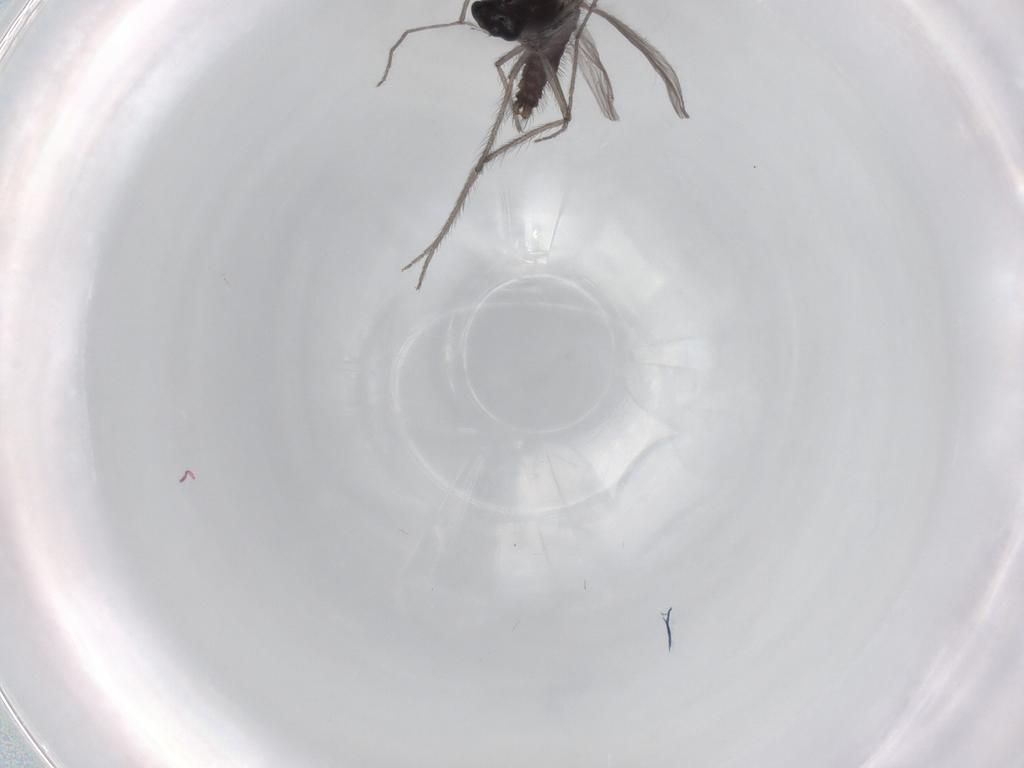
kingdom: Animalia
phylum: Arthropoda
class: Insecta
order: Diptera
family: Chironomidae
